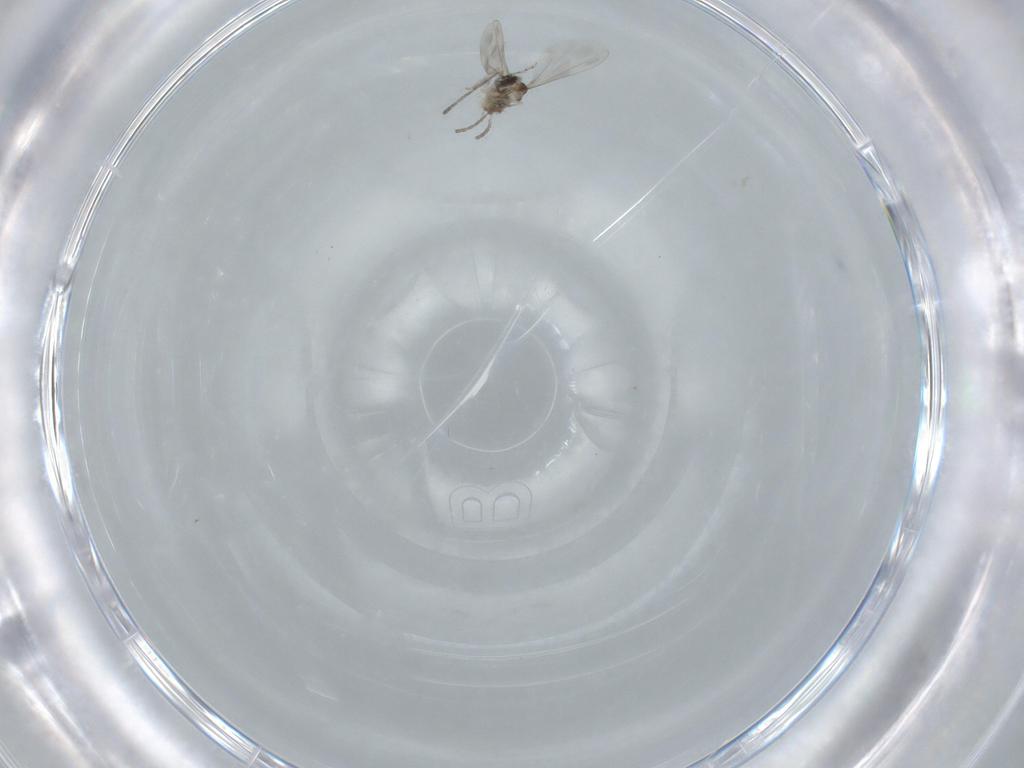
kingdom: Animalia
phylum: Arthropoda
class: Insecta
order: Diptera
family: Cecidomyiidae
